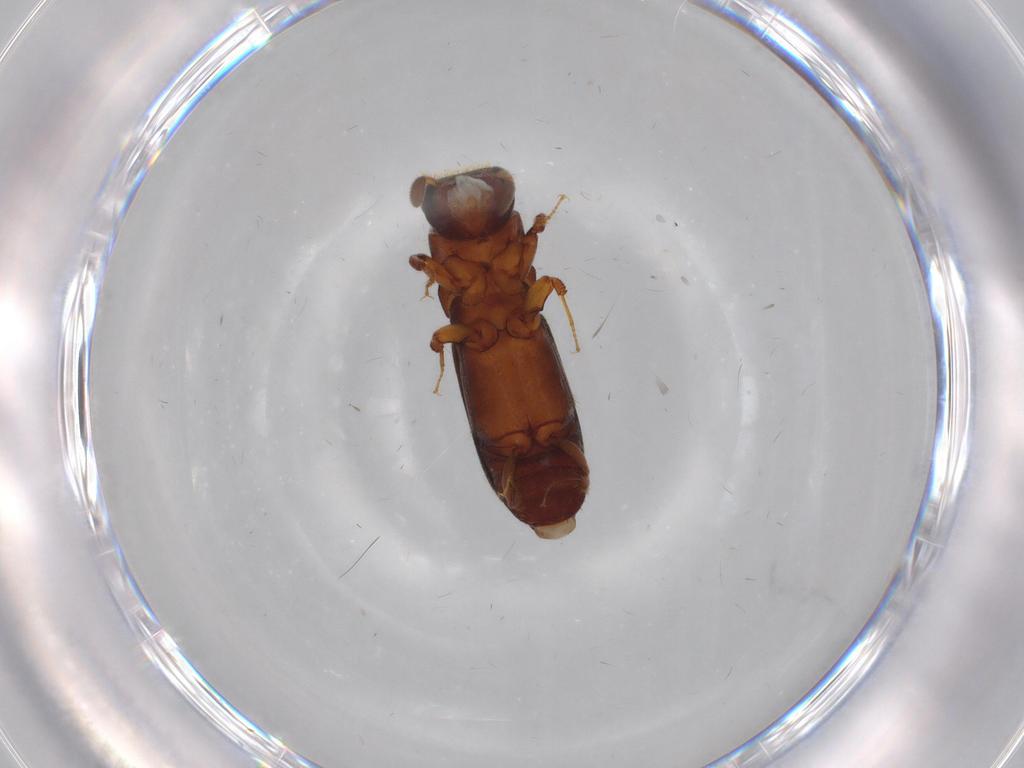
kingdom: Animalia
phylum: Arthropoda
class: Insecta
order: Coleoptera
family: Curculionidae
